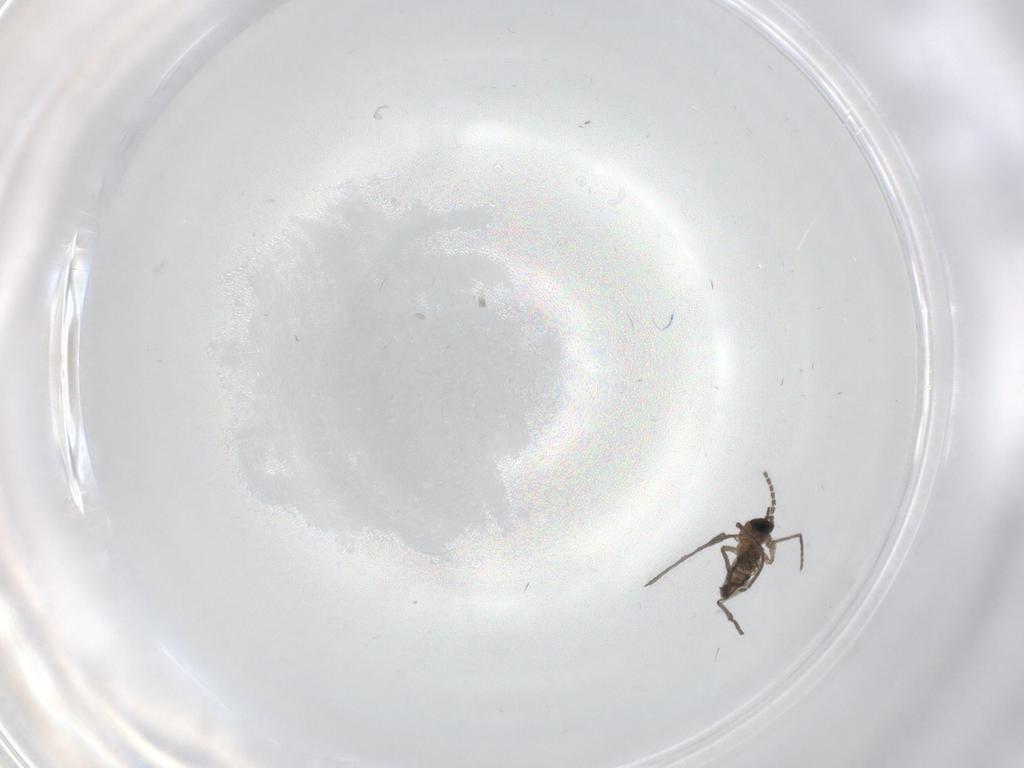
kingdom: Animalia
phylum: Arthropoda
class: Insecta
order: Diptera
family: Sciaridae
